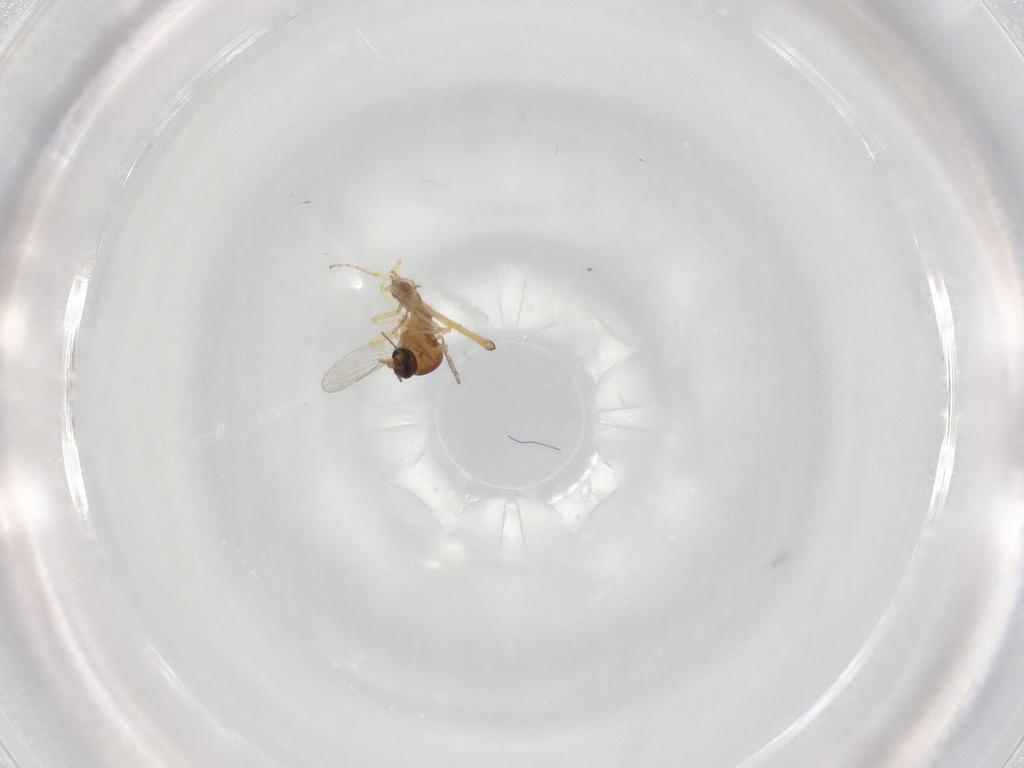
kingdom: Animalia
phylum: Arthropoda
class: Insecta
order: Diptera
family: Ceratopogonidae
